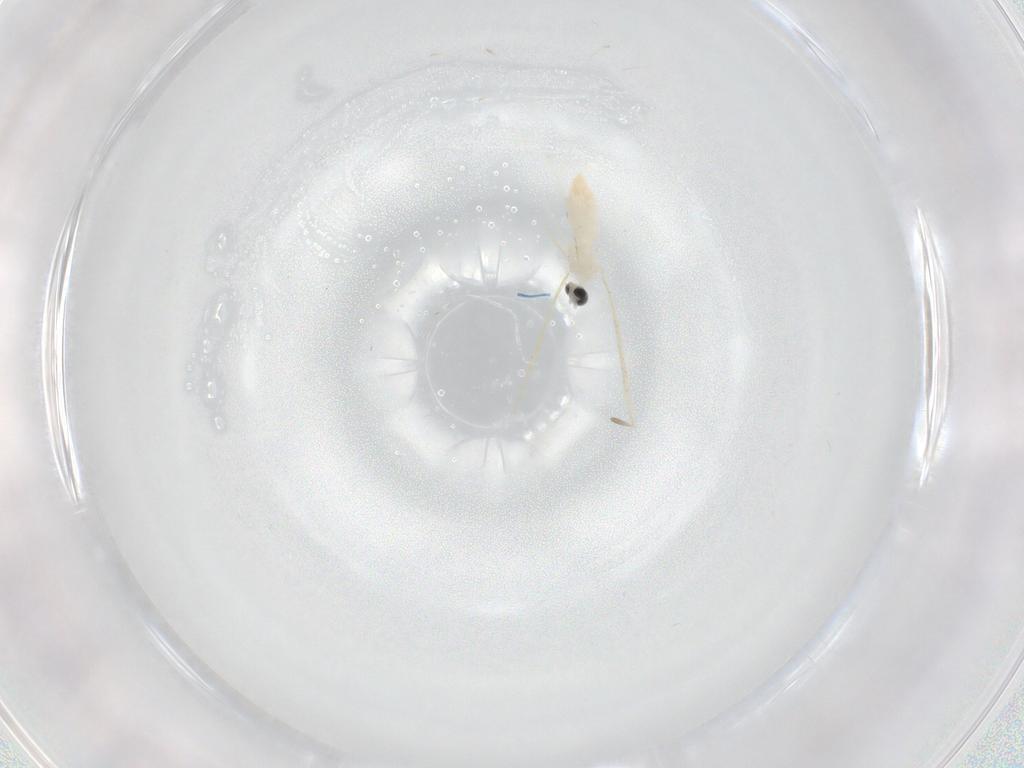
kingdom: Animalia
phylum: Arthropoda
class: Insecta
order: Diptera
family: Cecidomyiidae
